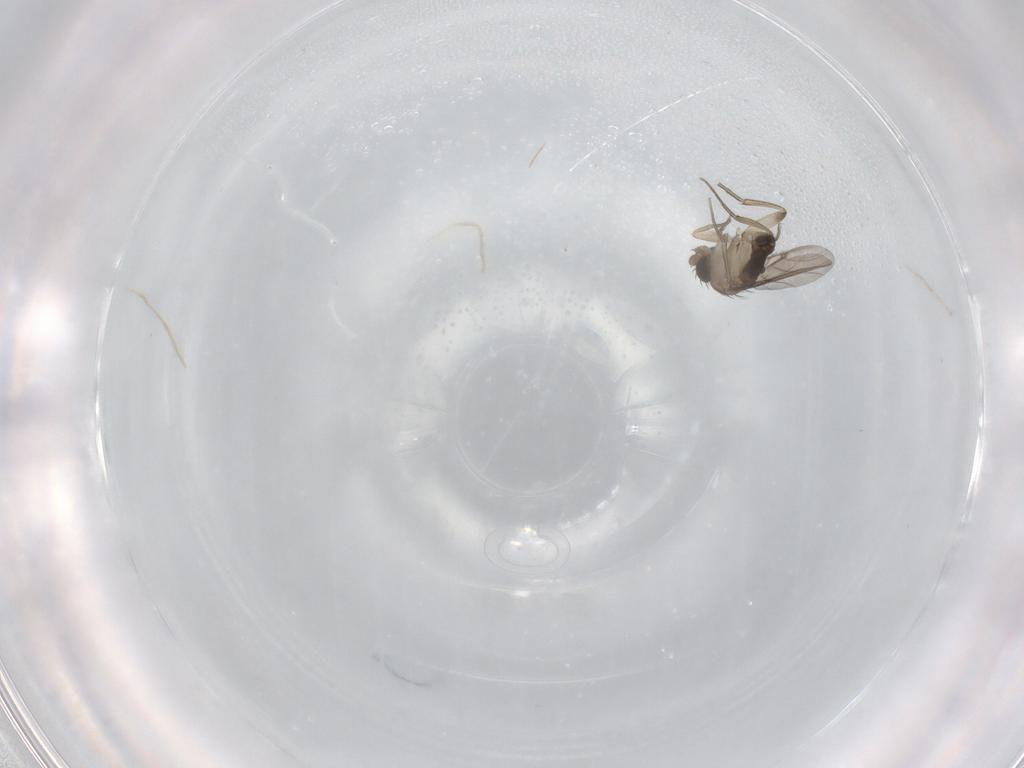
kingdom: Animalia
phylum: Arthropoda
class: Insecta
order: Diptera
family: Phoridae
